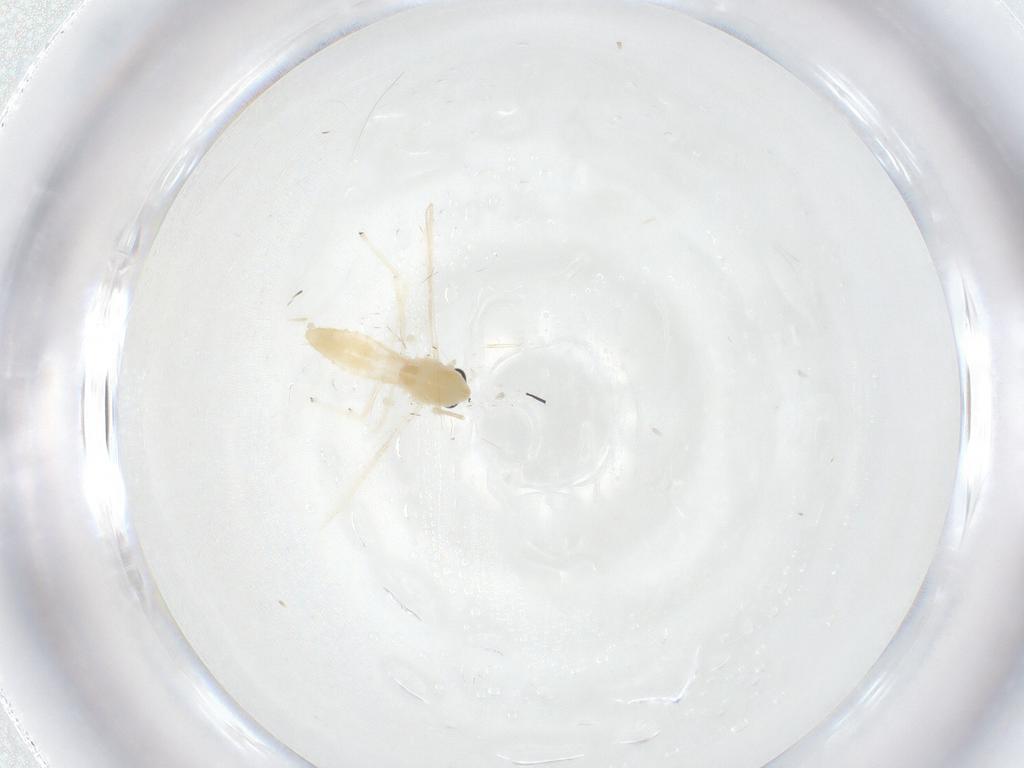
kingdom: Animalia
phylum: Arthropoda
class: Insecta
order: Diptera
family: Chironomidae
